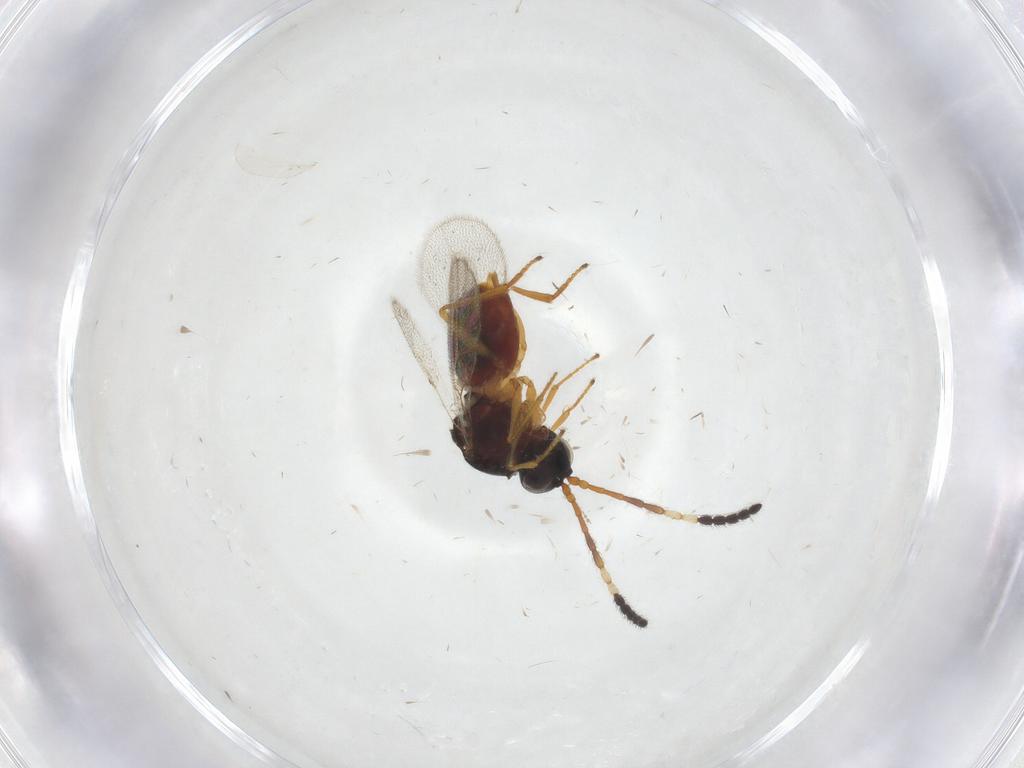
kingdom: Animalia
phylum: Arthropoda
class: Insecta
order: Hymenoptera
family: Figitidae
